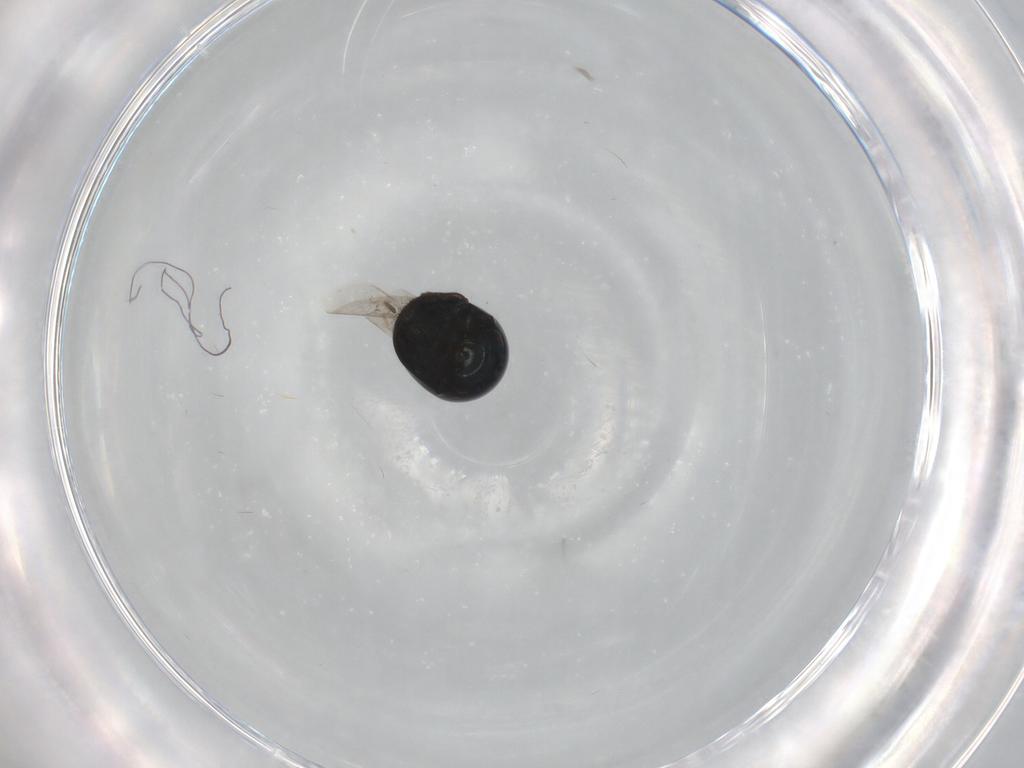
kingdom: Animalia
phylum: Arthropoda
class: Insecta
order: Coleoptera
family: Cybocephalidae
